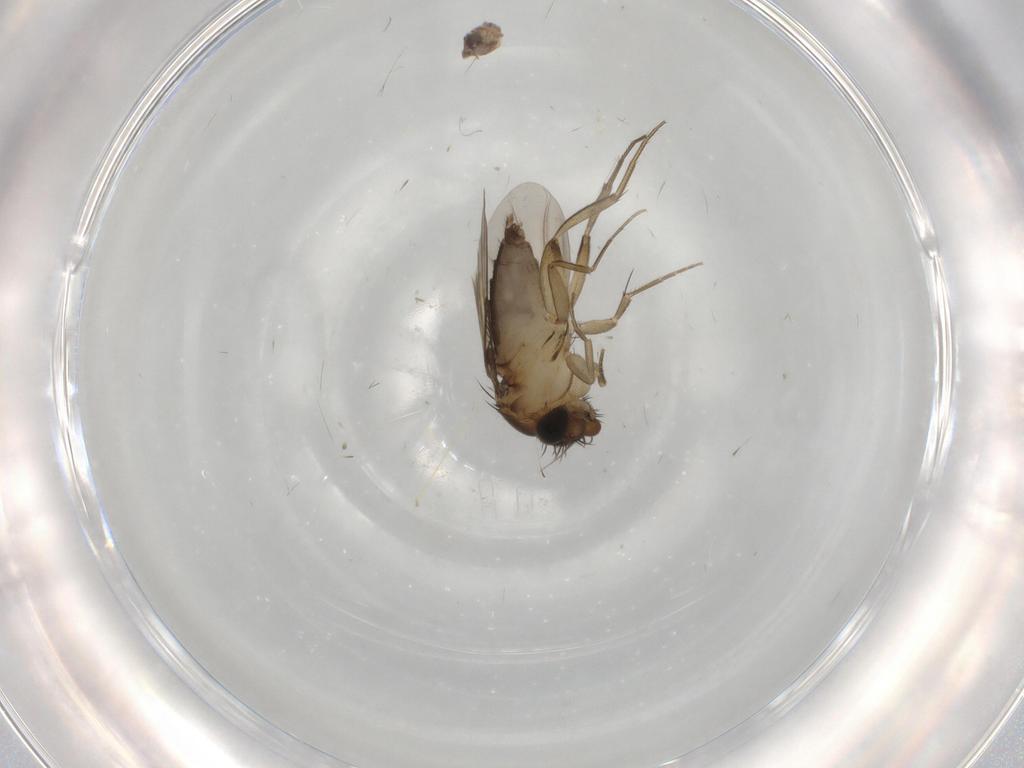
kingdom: Animalia
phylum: Arthropoda
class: Insecta
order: Diptera
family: Phoridae
